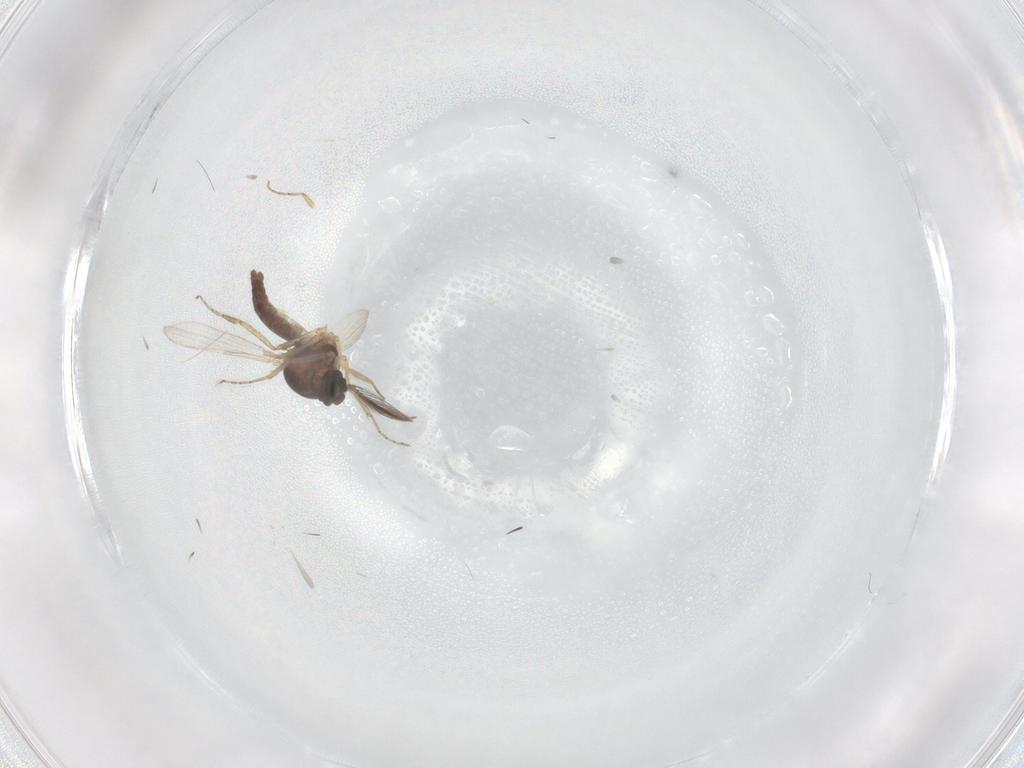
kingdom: Animalia
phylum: Arthropoda
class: Insecta
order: Diptera
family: Ceratopogonidae
